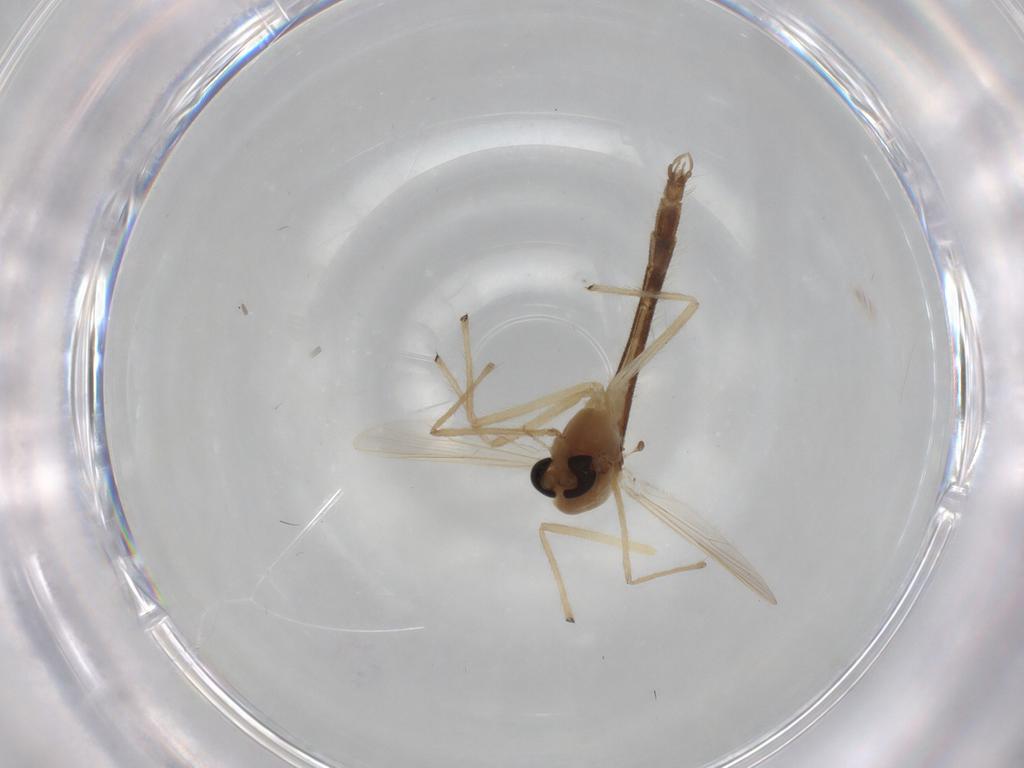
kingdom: Animalia
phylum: Arthropoda
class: Insecta
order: Diptera
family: Chironomidae
